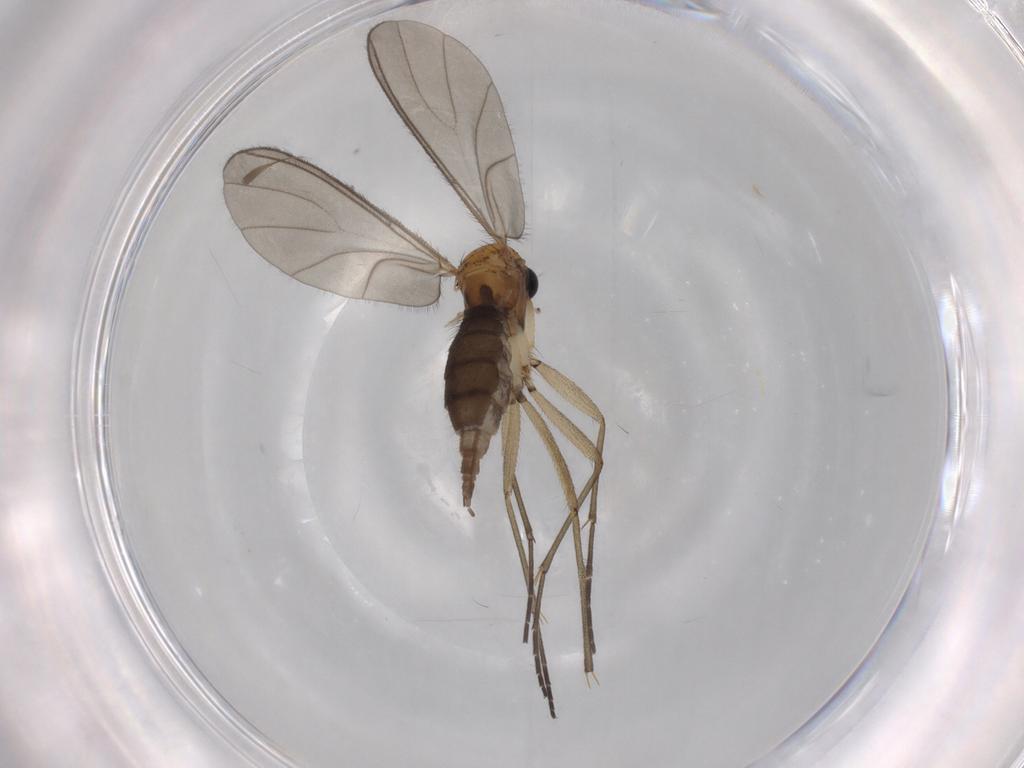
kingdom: Animalia
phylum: Arthropoda
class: Insecta
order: Diptera
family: Sciaridae
